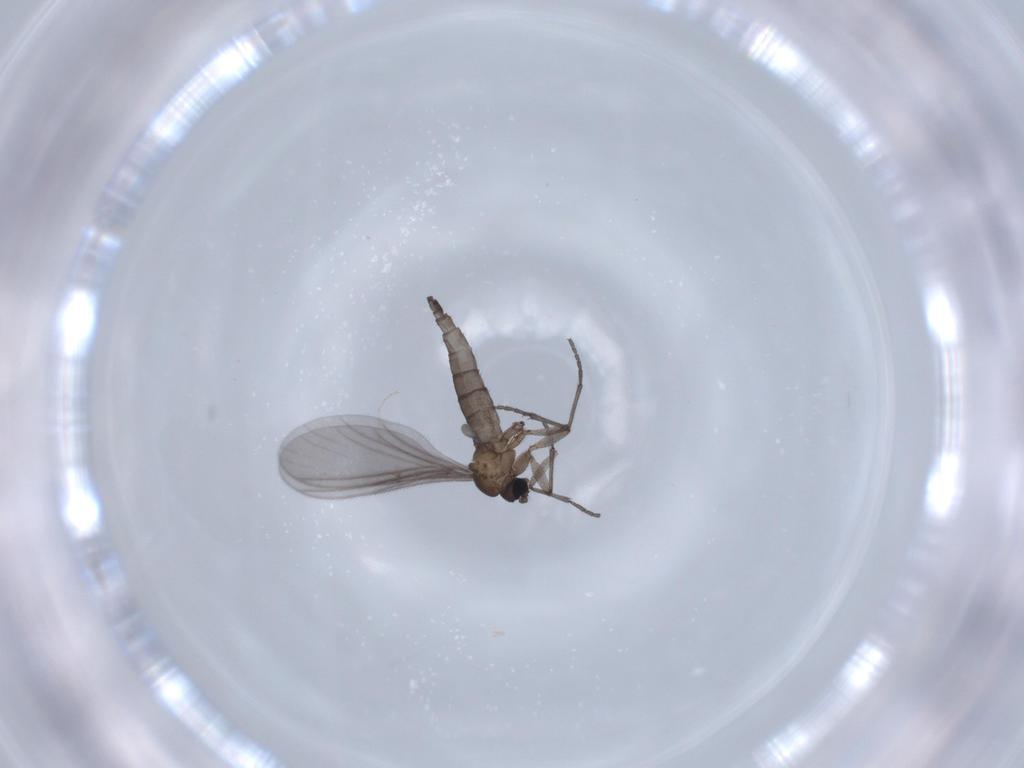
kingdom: Animalia
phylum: Arthropoda
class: Insecta
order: Diptera
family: Sciaridae
